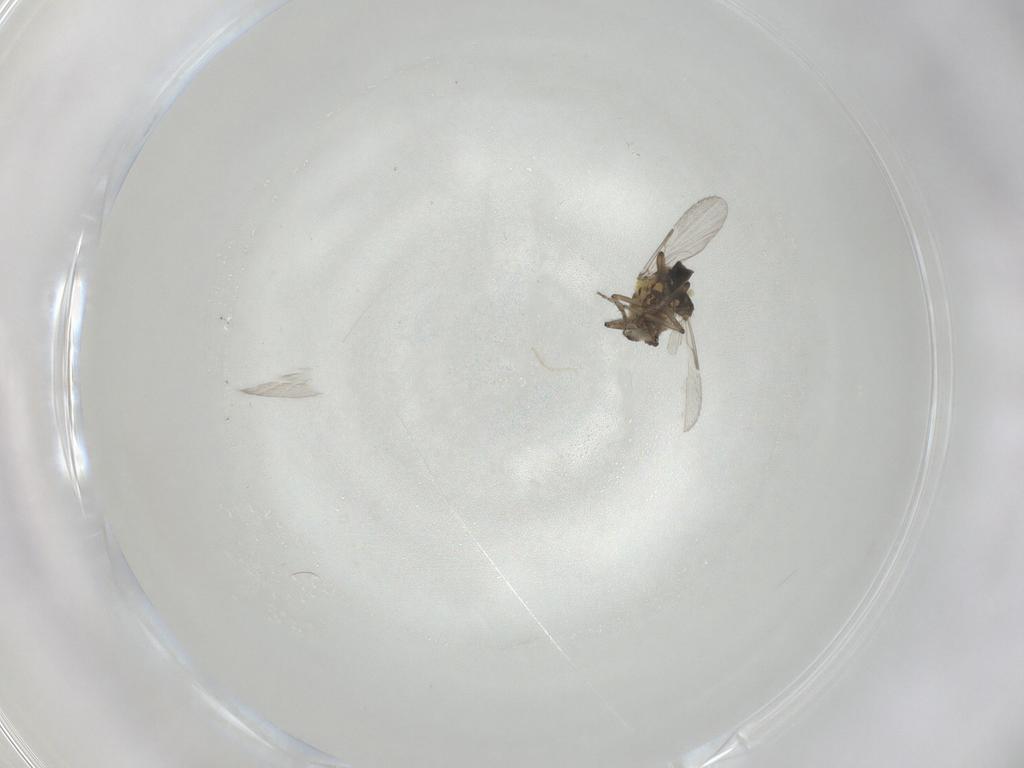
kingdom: Animalia
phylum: Arthropoda
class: Insecta
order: Diptera
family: Ceratopogonidae
